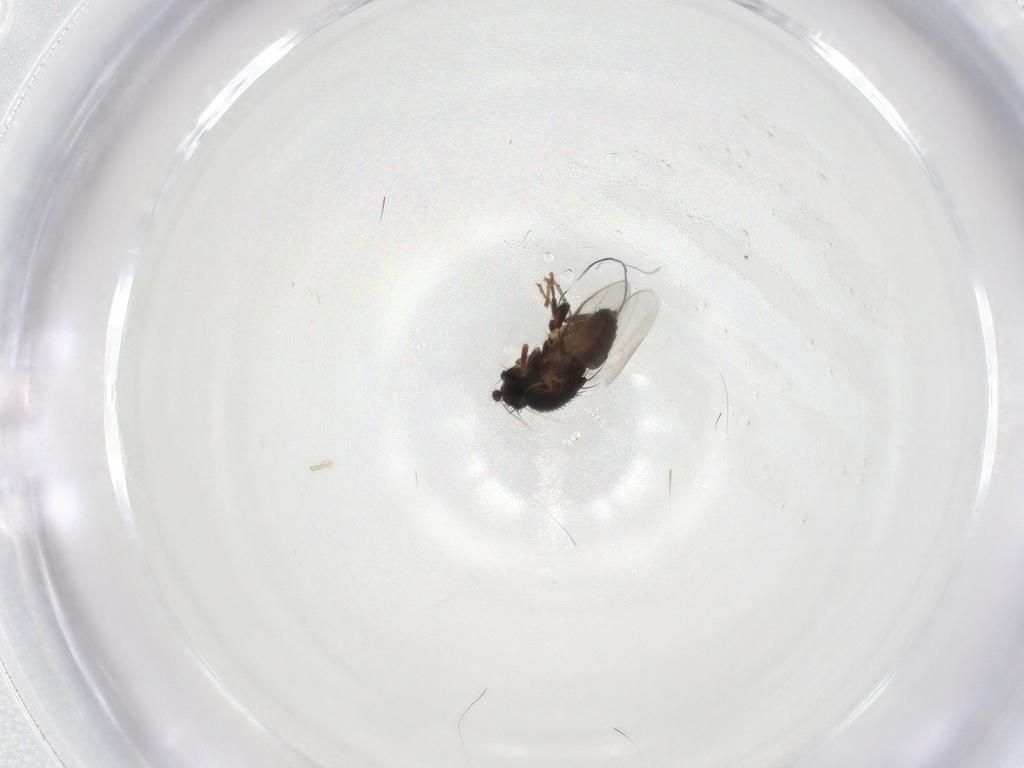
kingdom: Animalia
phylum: Arthropoda
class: Insecta
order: Diptera
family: Sphaeroceridae
